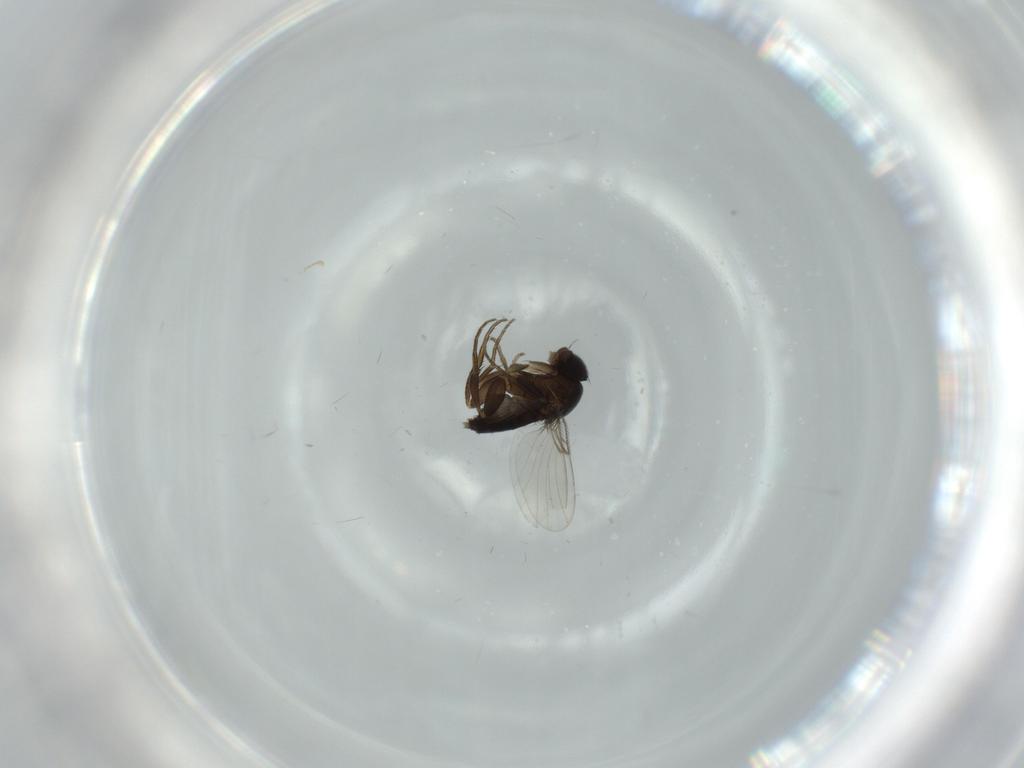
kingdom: Animalia
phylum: Arthropoda
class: Insecta
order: Diptera
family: Phoridae
